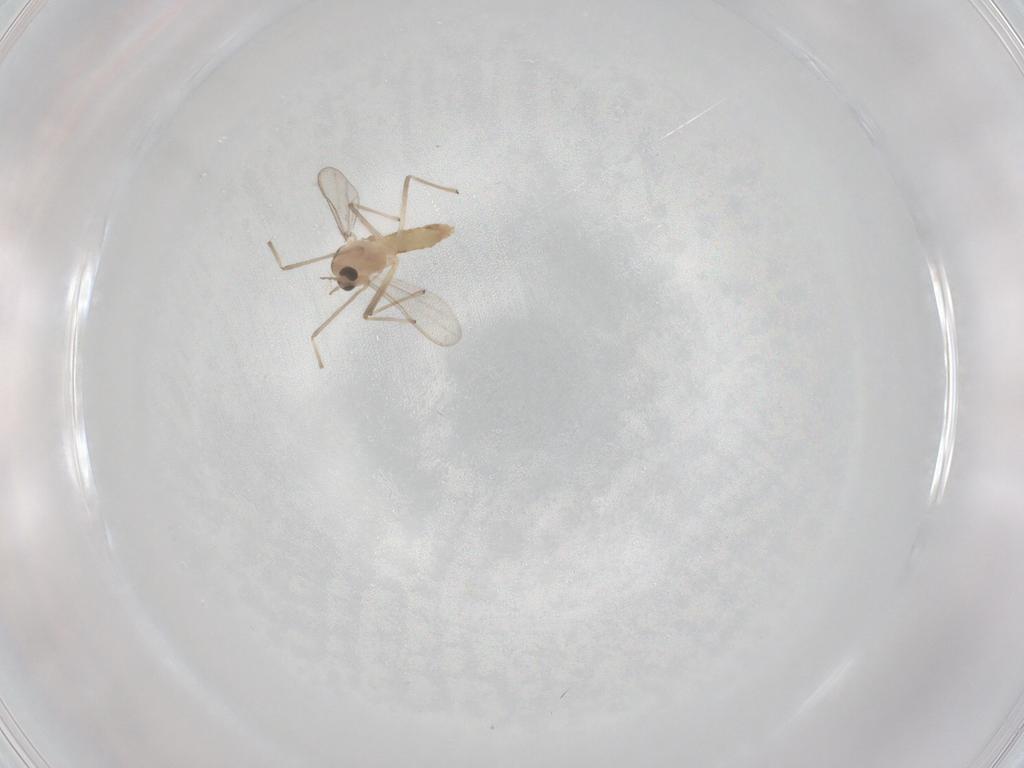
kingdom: Animalia
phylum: Arthropoda
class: Insecta
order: Diptera
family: Chironomidae
